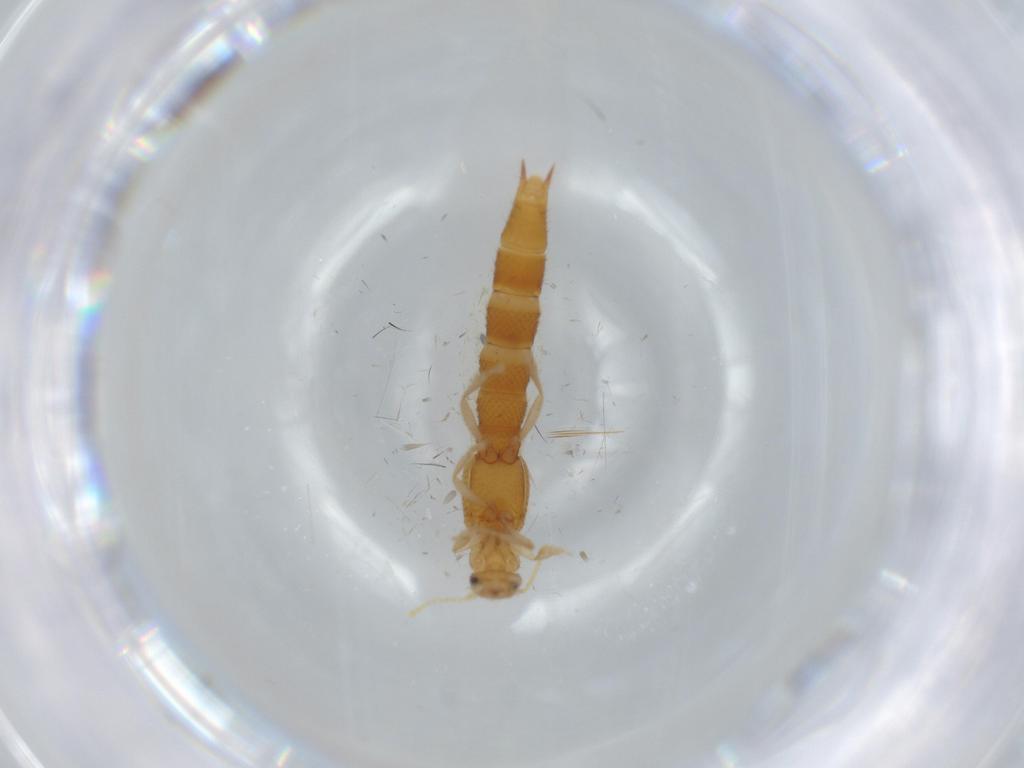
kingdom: Animalia
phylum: Arthropoda
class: Insecta
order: Coleoptera
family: Staphylinidae
